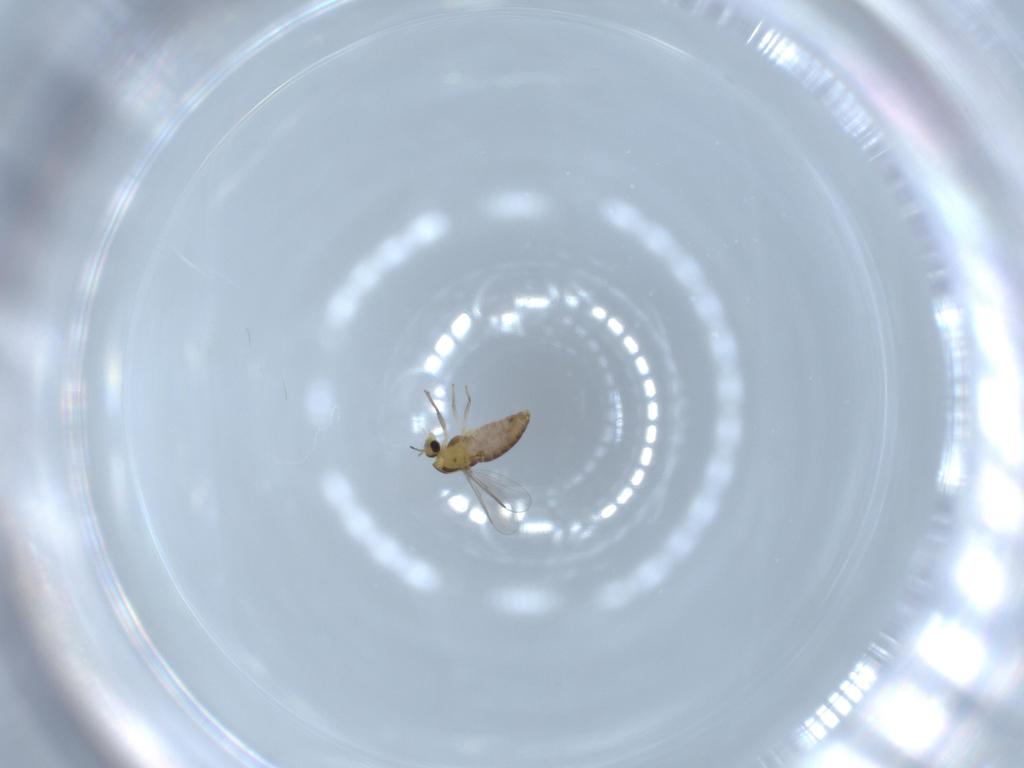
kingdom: Animalia
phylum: Arthropoda
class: Insecta
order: Diptera
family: Chironomidae
